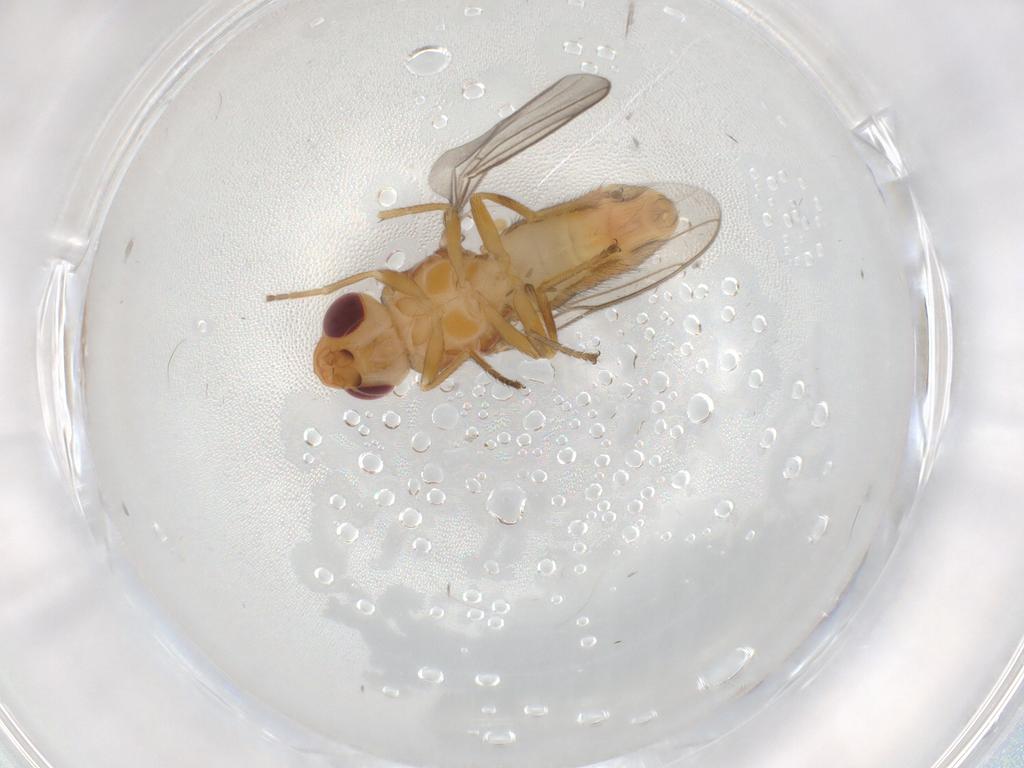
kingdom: Animalia
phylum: Arthropoda
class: Insecta
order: Diptera
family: Chloropidae
